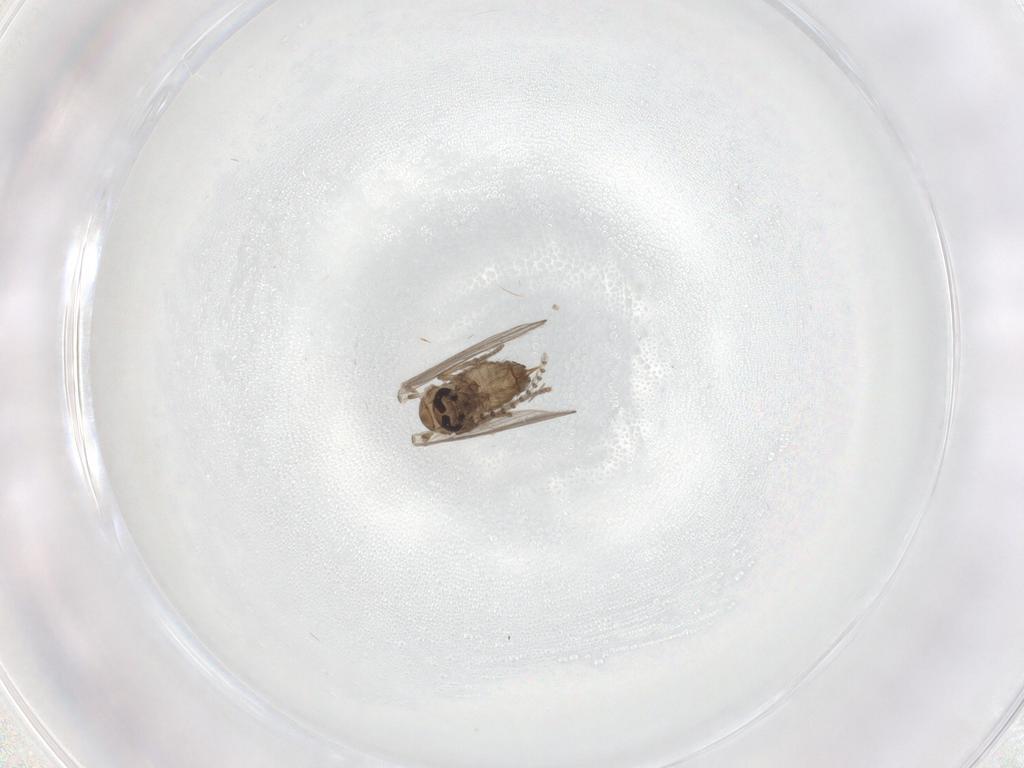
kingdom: Animalia
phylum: Arthropoda
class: Insecta
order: Diptera
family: Psychodidae
